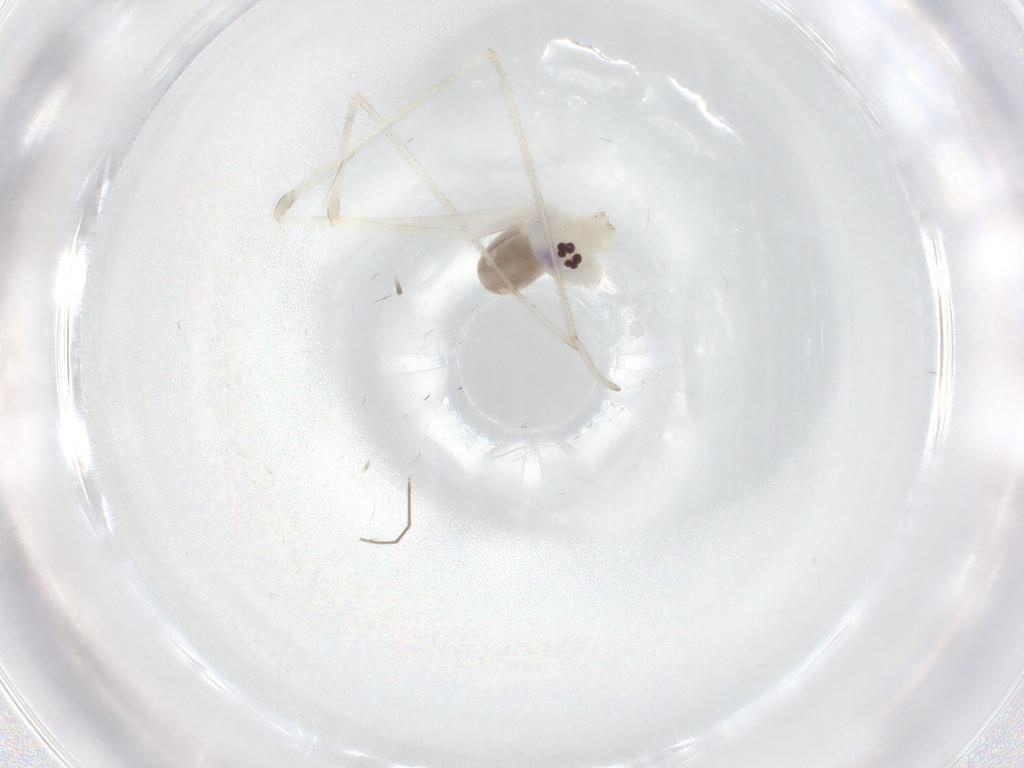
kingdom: Animalia
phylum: Arthropoda
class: Arachnida
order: Araneae
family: Pholcidae
